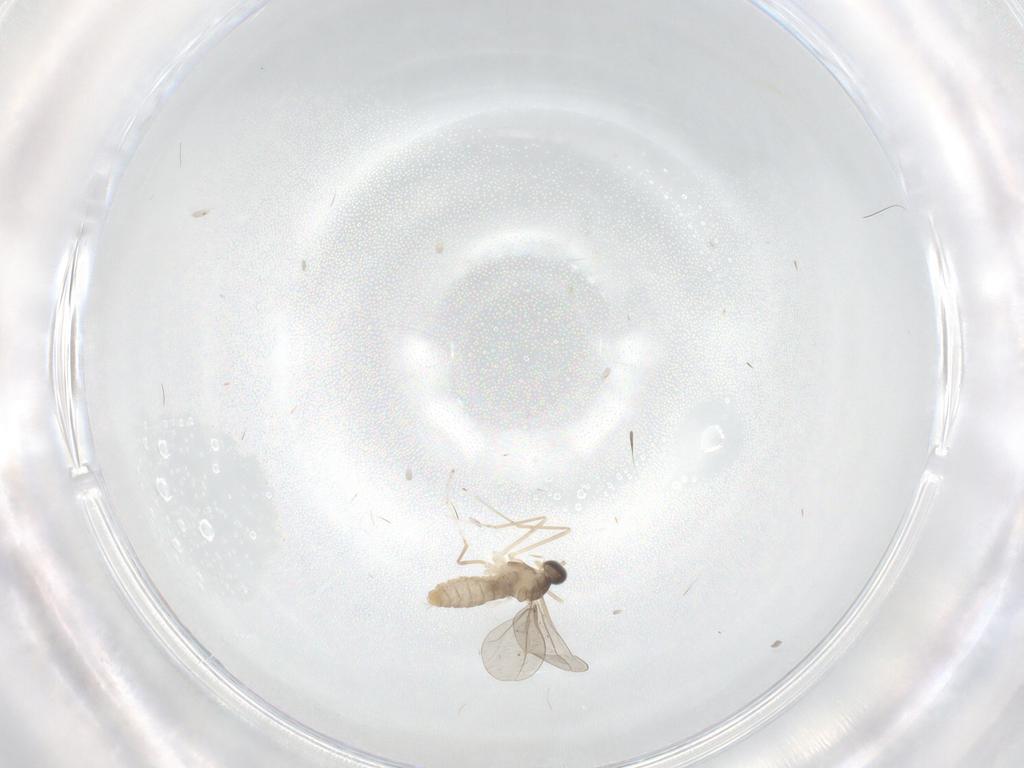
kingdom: Animalia
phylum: Arthropoda
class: Insecta
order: Diptera
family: Cecidomyiidae
